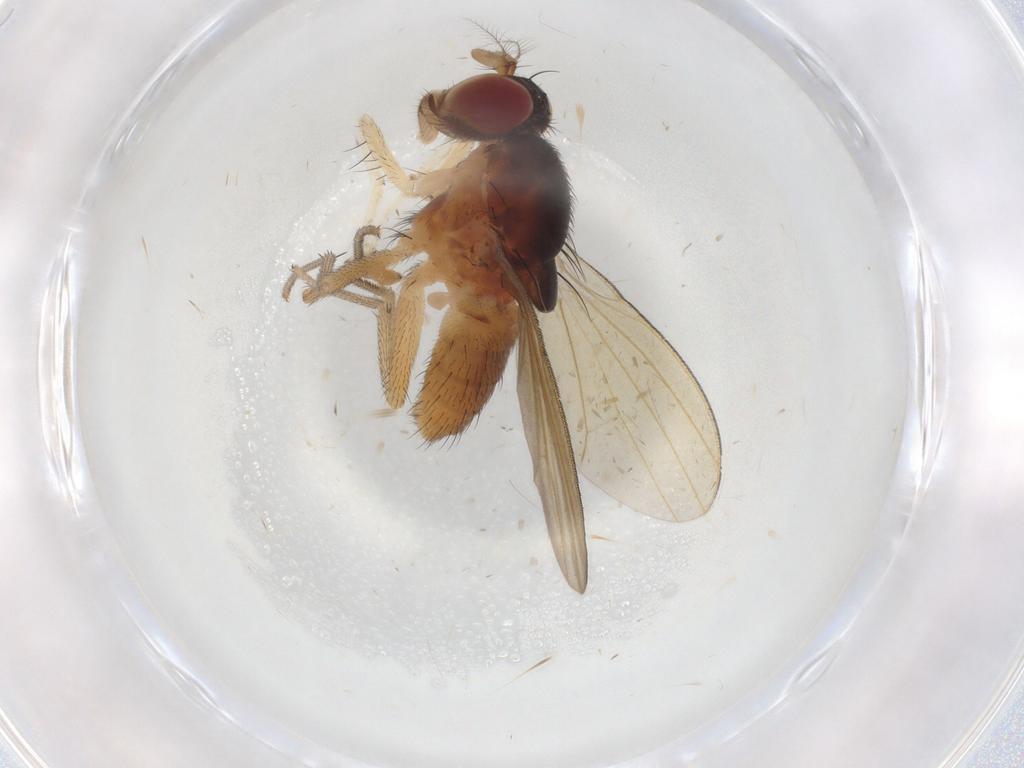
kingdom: Animalia
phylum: Arthropoda
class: Insecta
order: Diptera
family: Lauxaniidae
